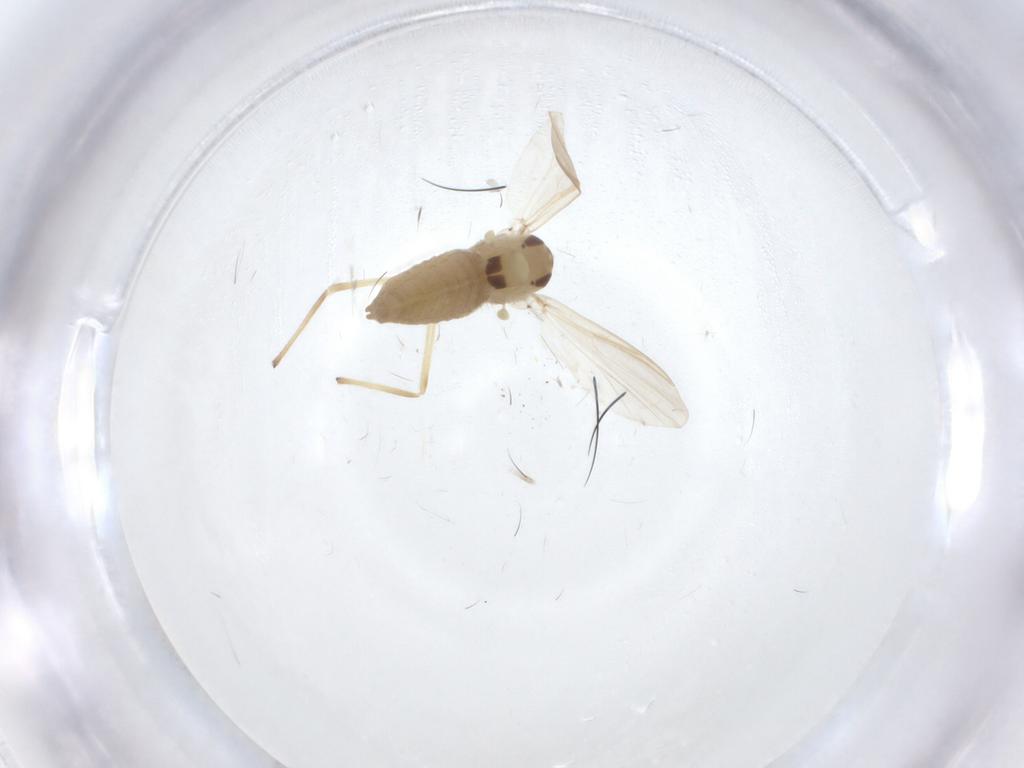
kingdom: Animalia
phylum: Arthropoda
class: Insecta
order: Diptera
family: Chironomidae
